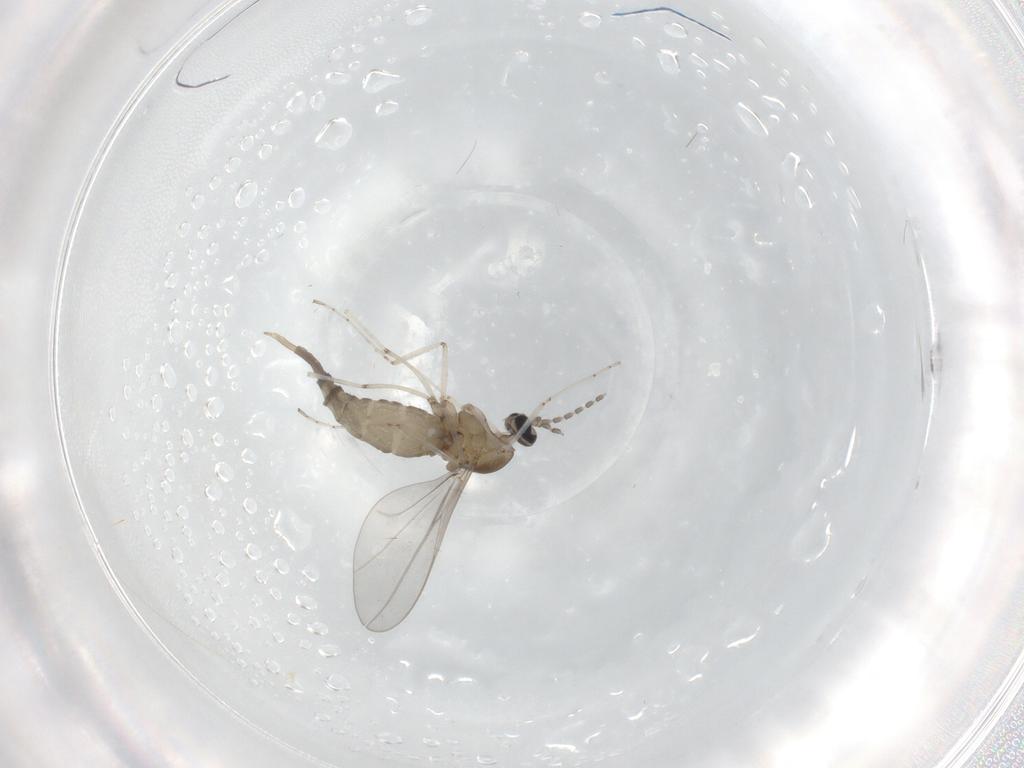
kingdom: Animalia
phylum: Arthropoda
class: Insecta
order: Diptera
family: Cecidomyiidae
